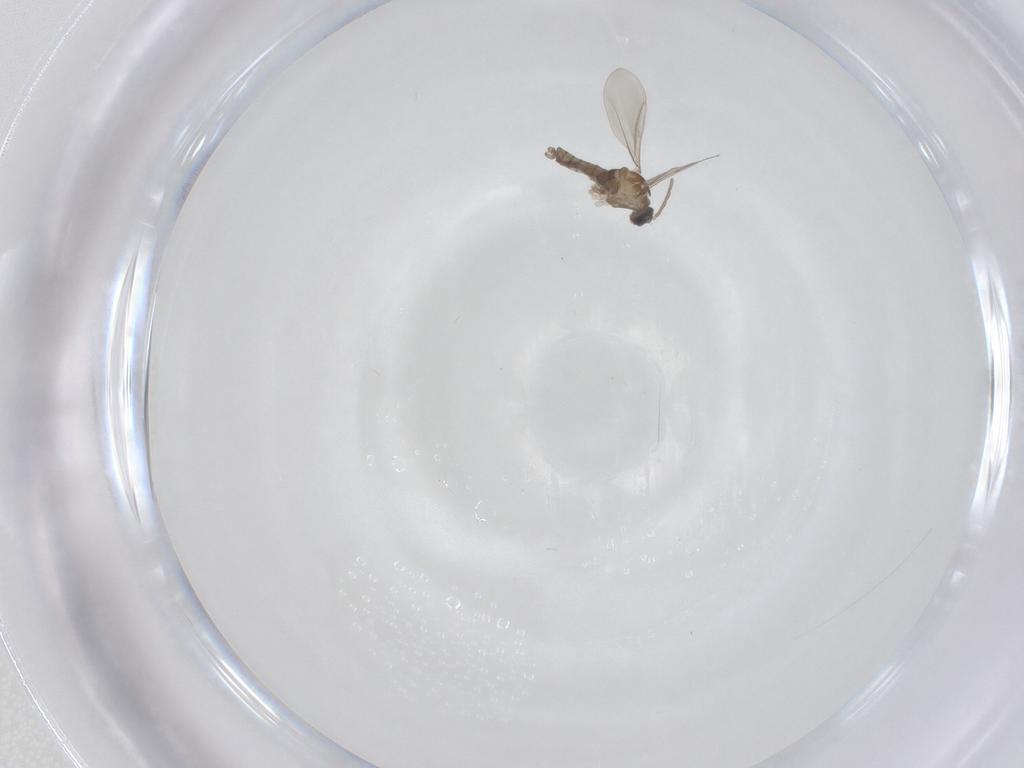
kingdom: Animalia
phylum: Arthropoda
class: Insecta
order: Diptera
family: Cecidomyiidae
